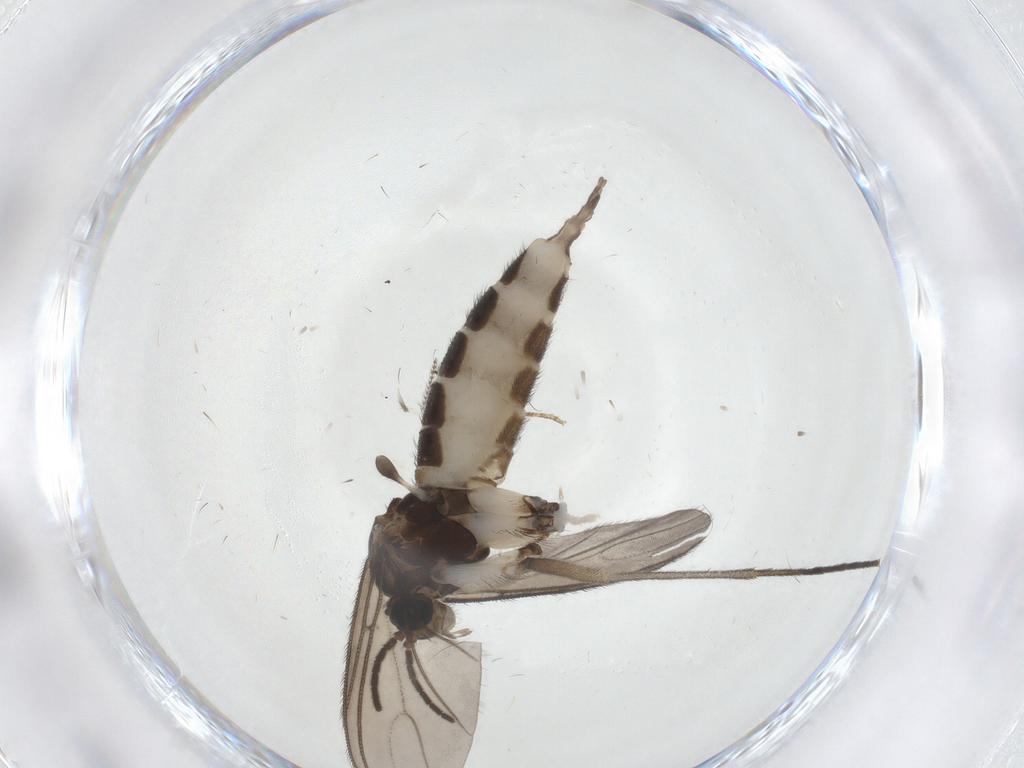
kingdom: Animalia
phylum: Arthropoda
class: Insecta
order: Diptera
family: Sciaridae
